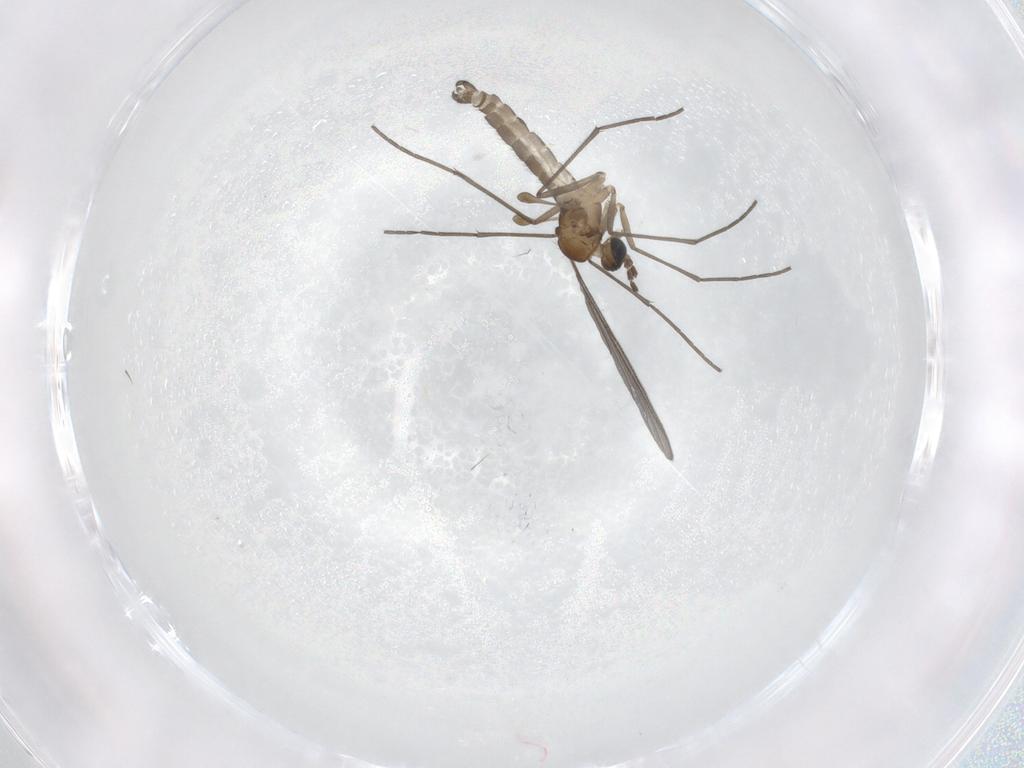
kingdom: Animalia
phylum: Arthropoda
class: Insecta
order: Diptera
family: Sciaridae
